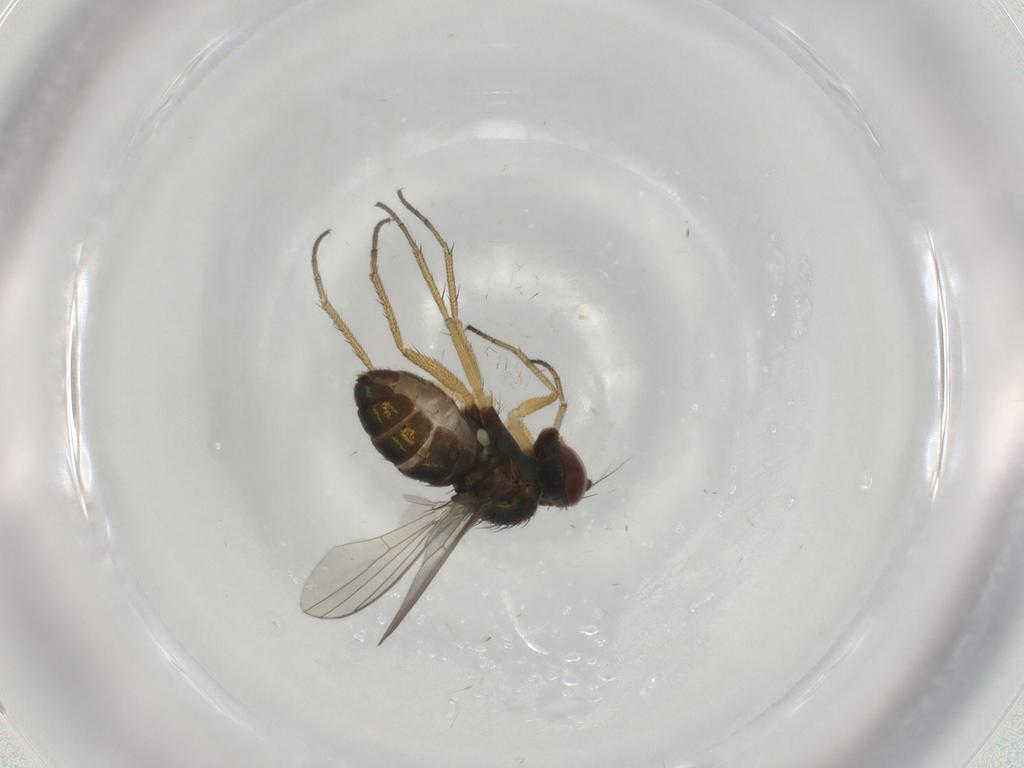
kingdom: Animalia
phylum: Arthropoda
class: Insecta
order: Diptera
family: Dolichopodidae
